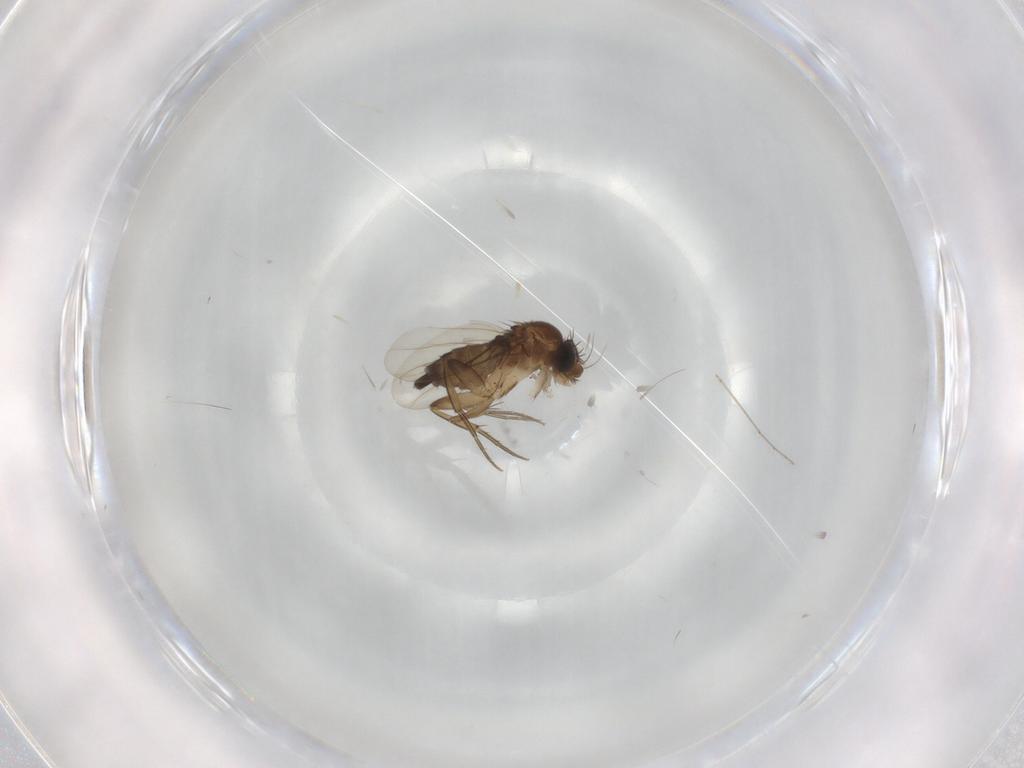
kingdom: Animalia
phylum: Arthropoda
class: Insecta
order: Diptera
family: Phoridae
